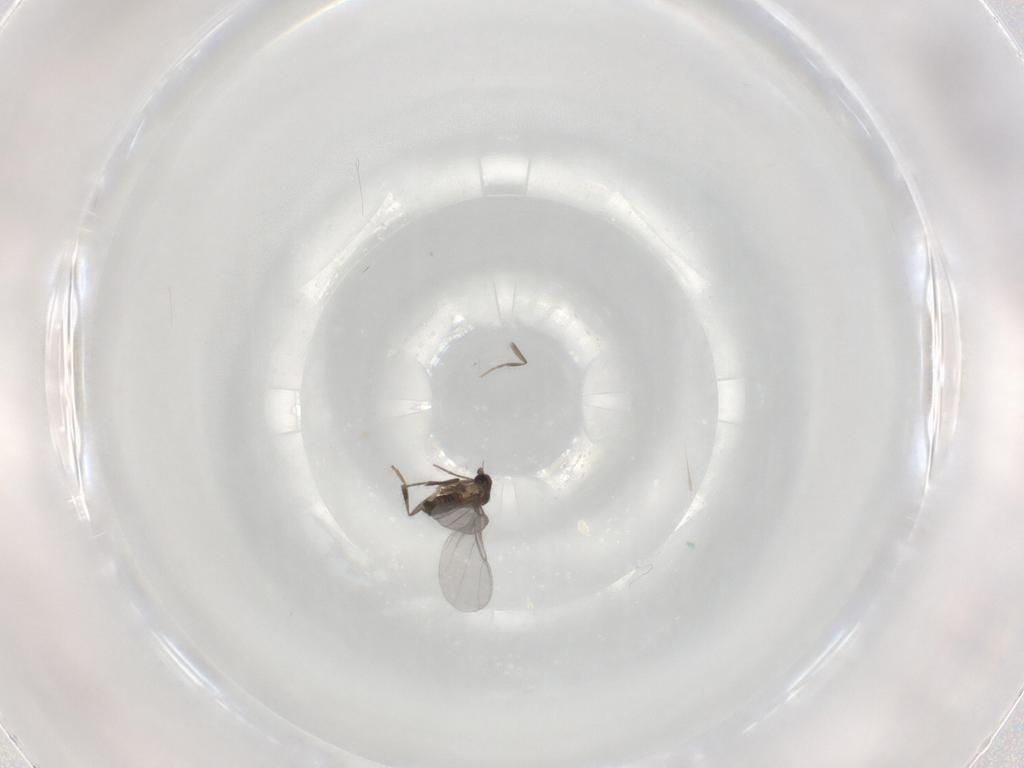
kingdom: Animalia
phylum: Arthropoda
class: Insecta
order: Diptera
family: Phoridae
